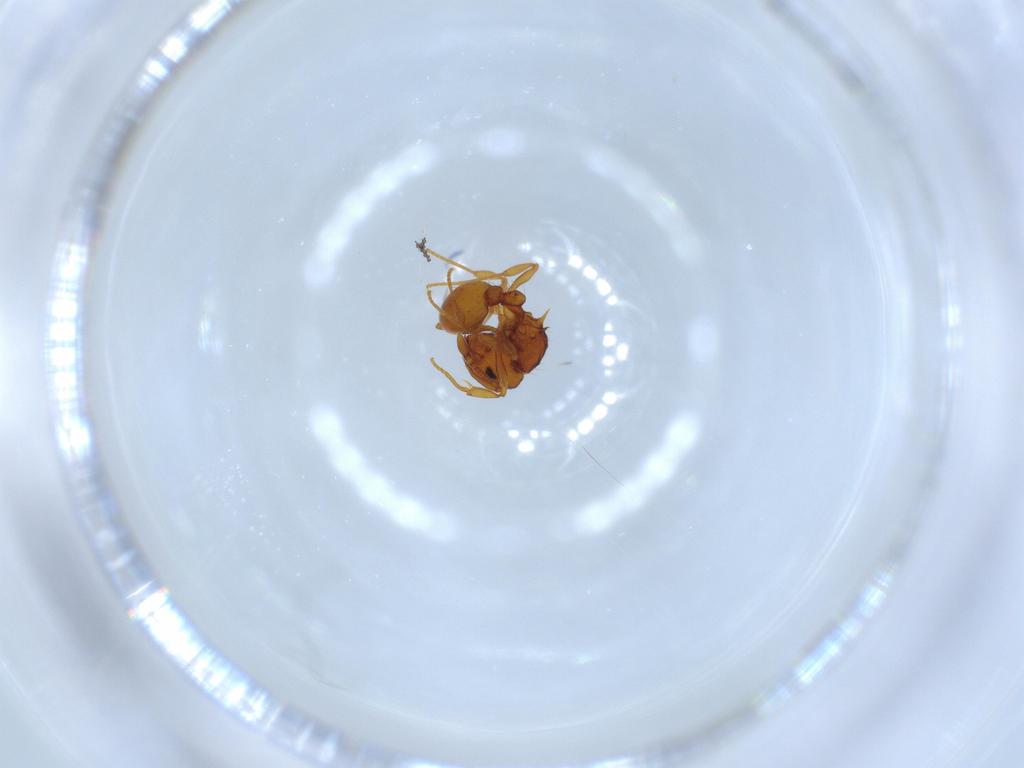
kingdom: Animalia
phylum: Arthropoda
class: Insecta
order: Hymenoptera
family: Formicidae
